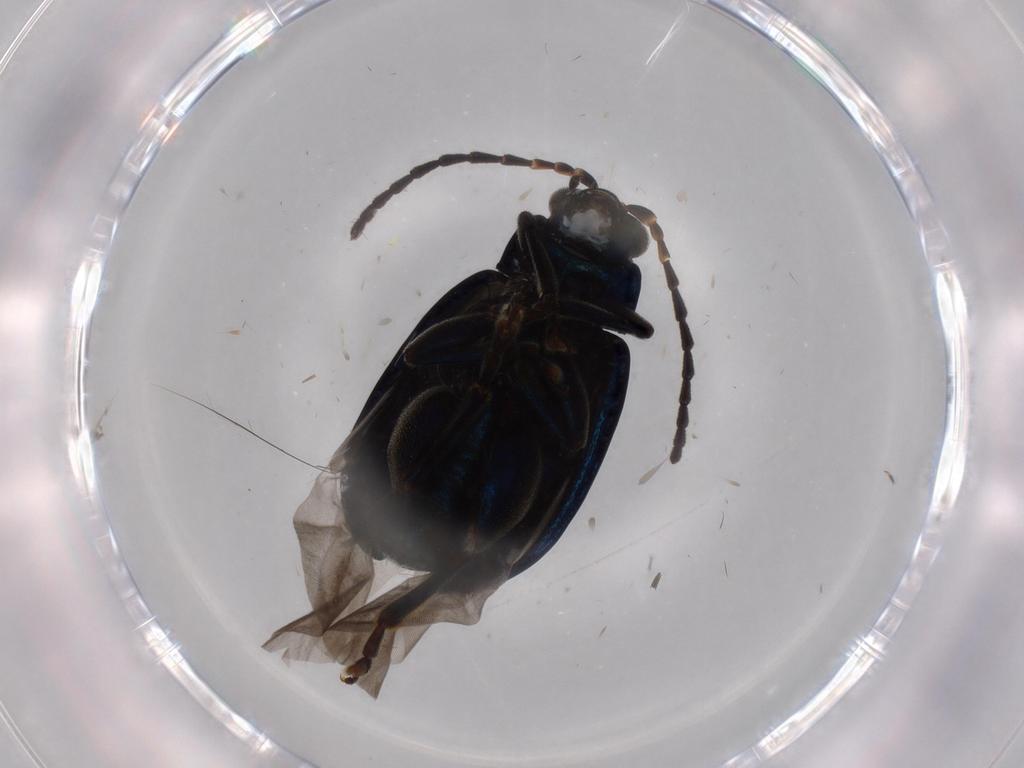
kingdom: Animalia
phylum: Arthropoda
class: Insecta
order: Coleoptera
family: Chrysomelidae
